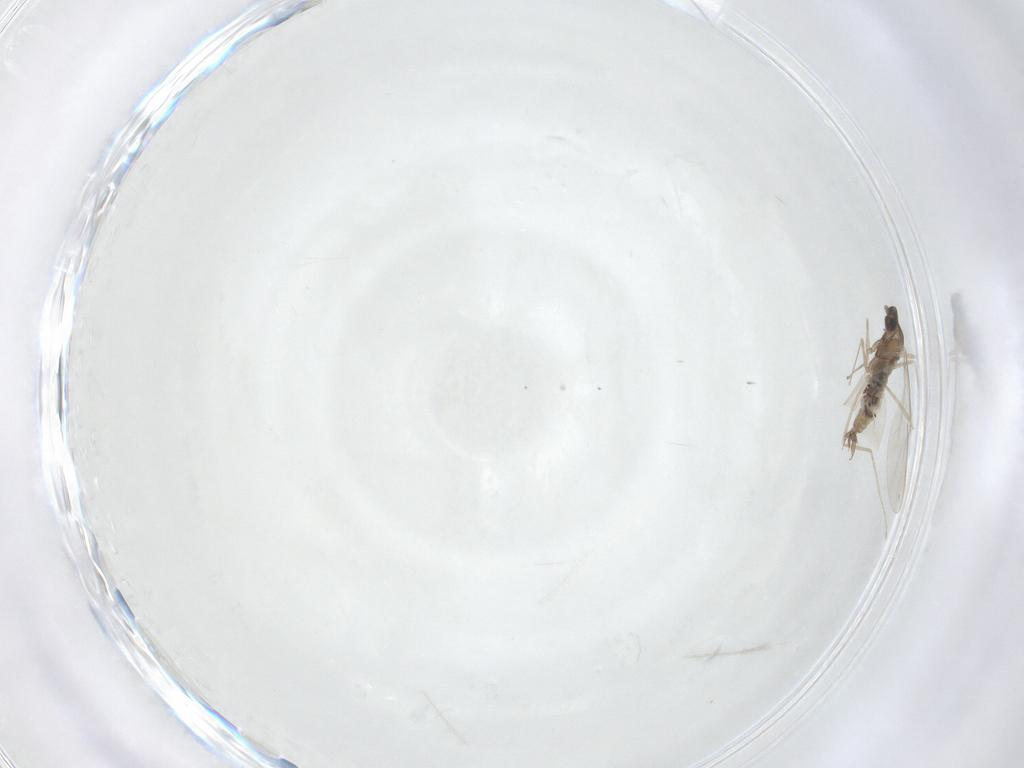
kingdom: Animalia
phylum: Arthropoda
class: Insecta
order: Diptera
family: Cecidomyiidae
